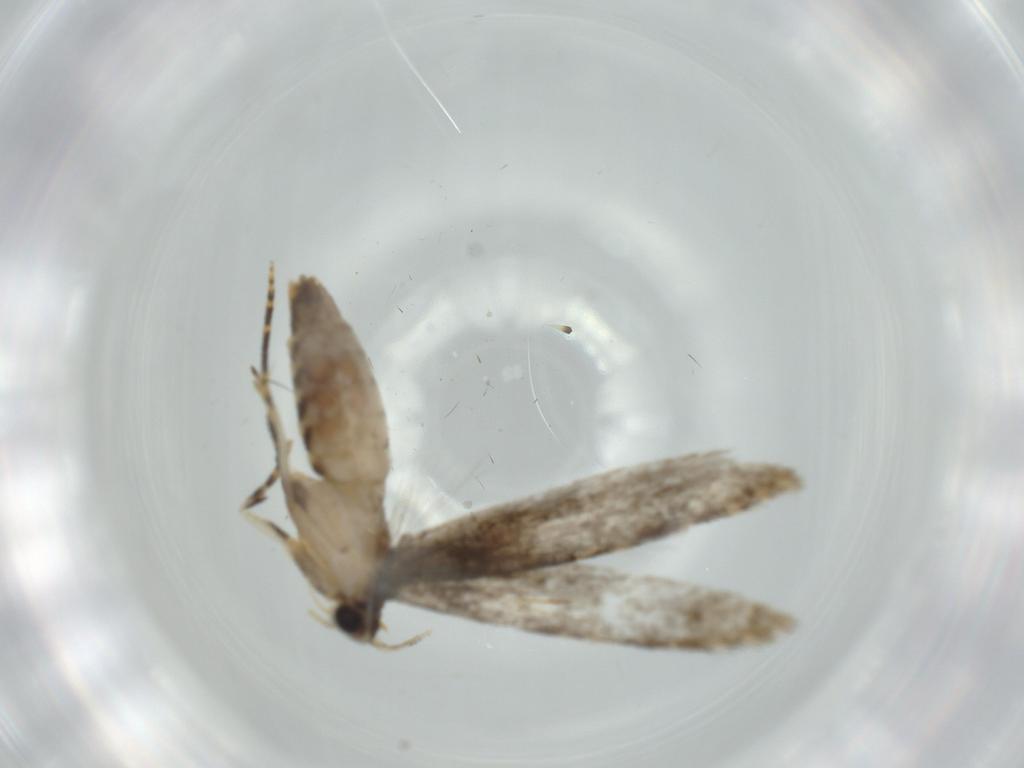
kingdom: Animalia
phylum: Arthropoda
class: Insecta
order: Lepidoptera
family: Tineidae
